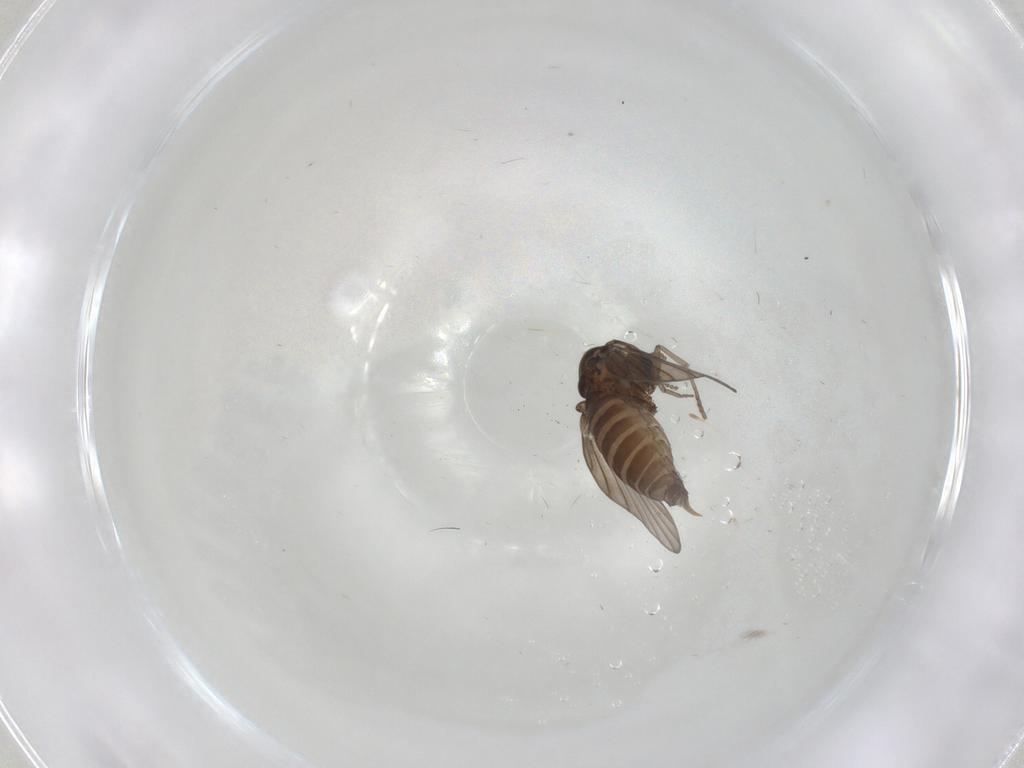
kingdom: Animalia
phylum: Arthropoda
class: Insecta
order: Diptera
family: Psychodidae
